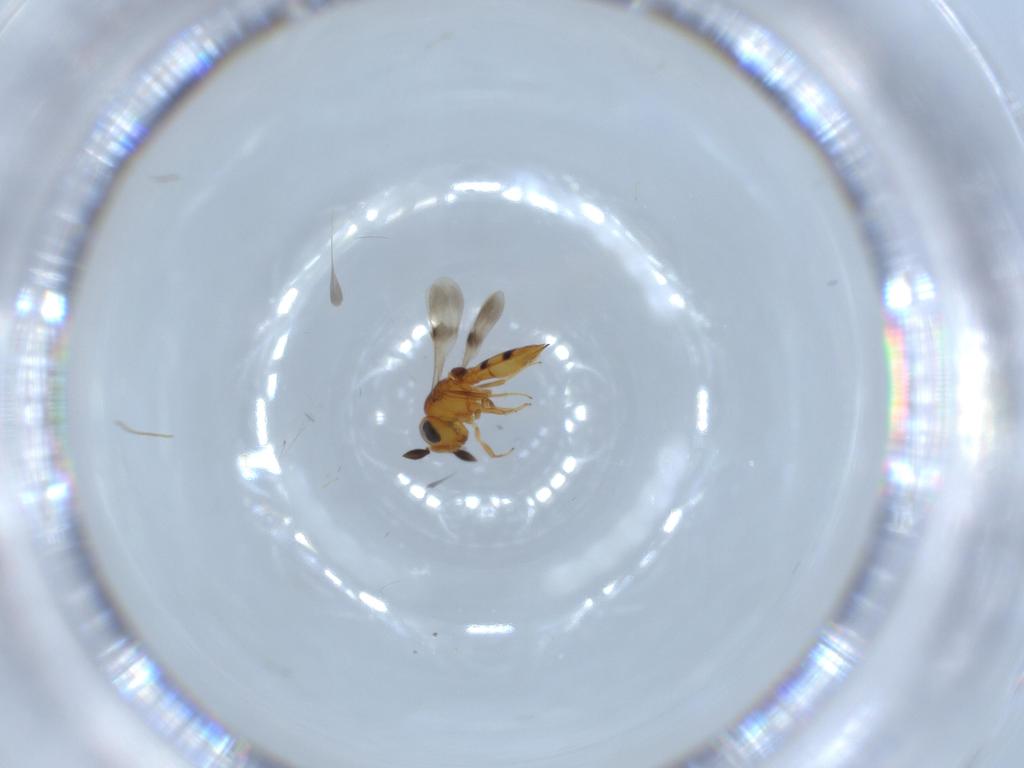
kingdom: Animalia
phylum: Arthropoda
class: Insecta
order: Hymenoptera
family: Scelionidae
